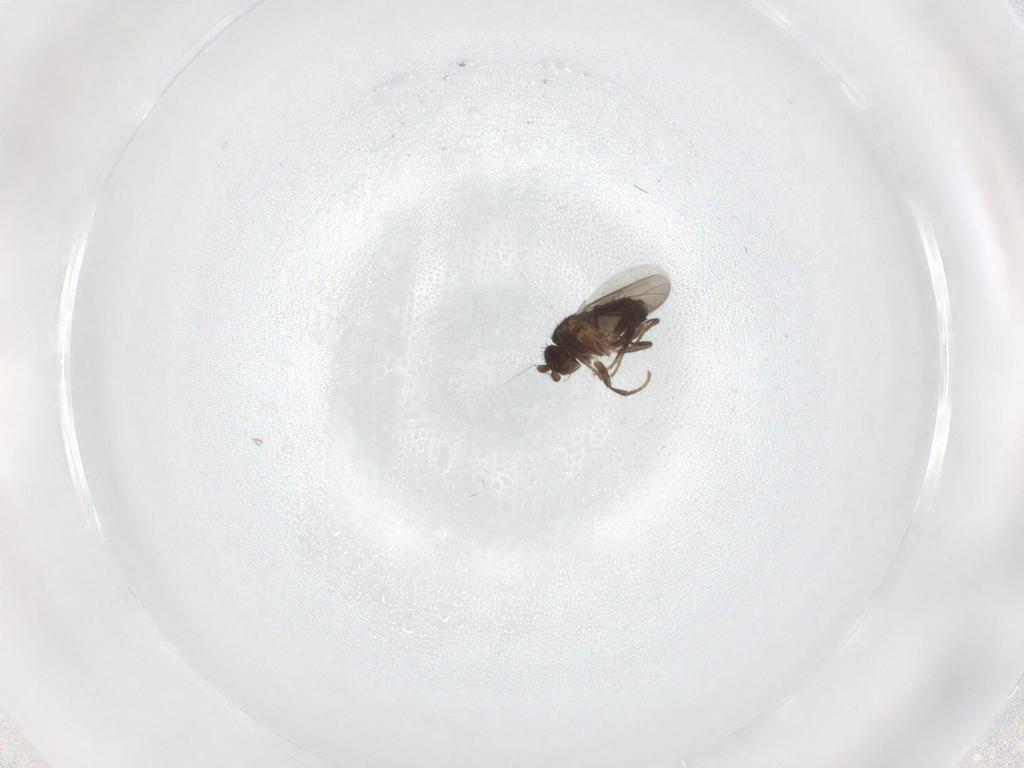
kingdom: Animalia
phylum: Arthropoda
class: Insecta
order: Diptera
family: Sphaeroceridae
